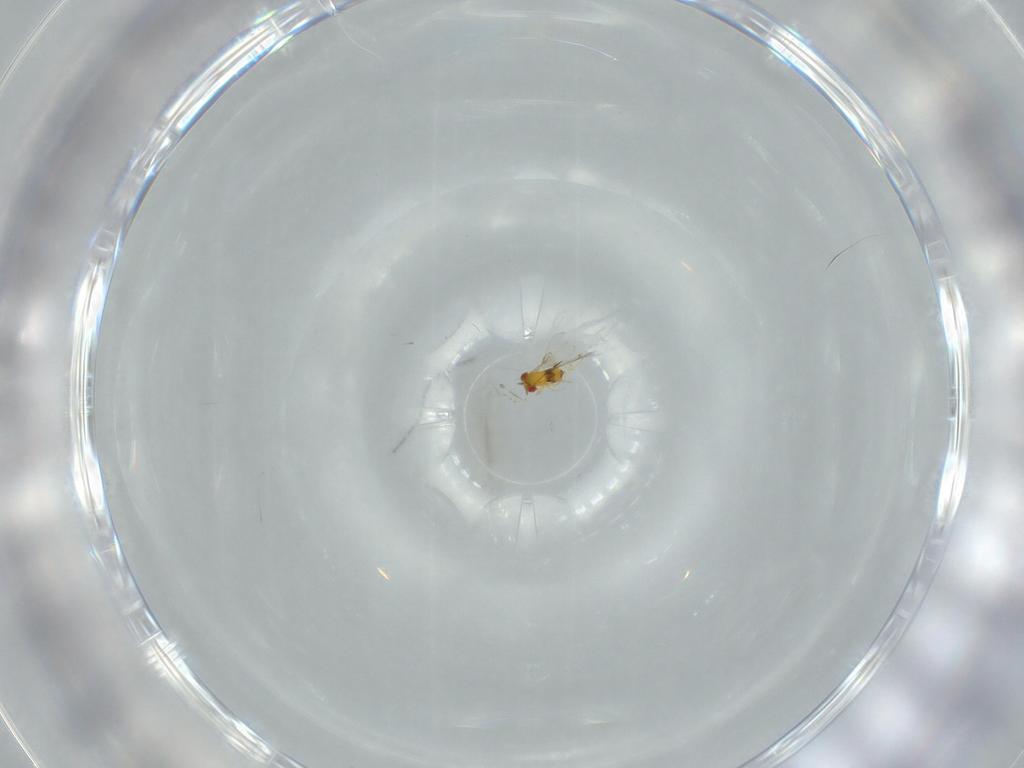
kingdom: Animalia
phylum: Arthropoda
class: Insecta
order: Hymenoptera
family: Trichogrammatidae
